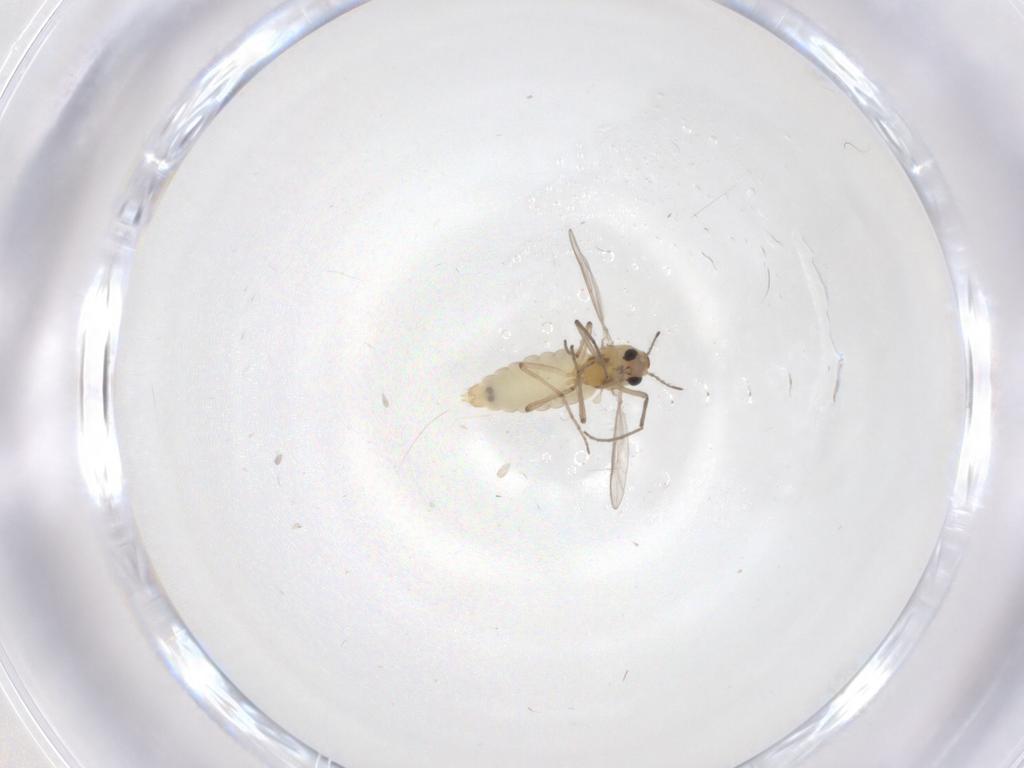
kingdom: Animalia
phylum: Arthropoda
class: Insecta
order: Diptera
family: Chironomidae
